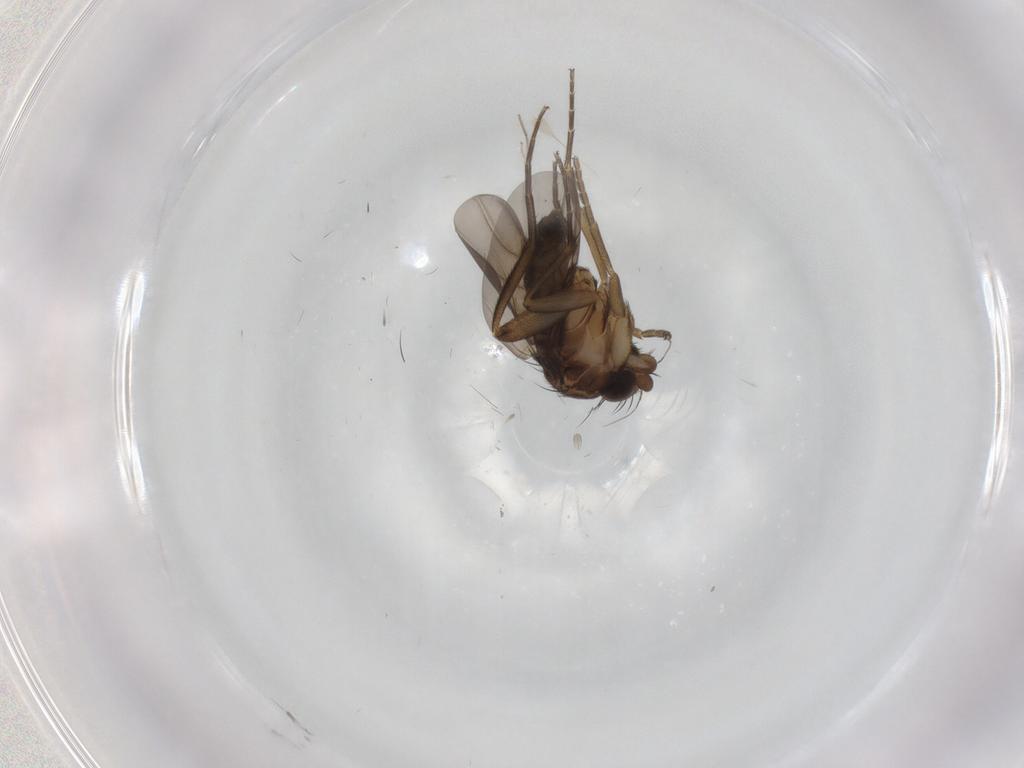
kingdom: Animalia
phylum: Arthropoda
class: Insecta
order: Diptera
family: Phoridae
